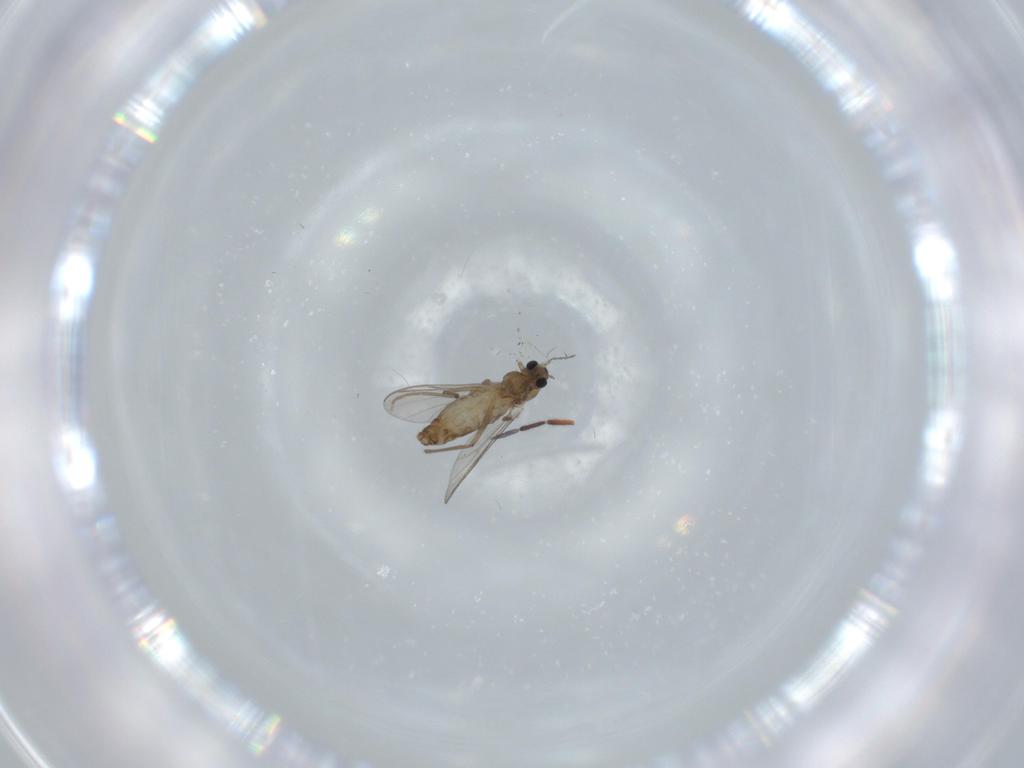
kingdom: Animalia
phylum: Arthropoda
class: Insecta
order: Diptera
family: Chironomidae
